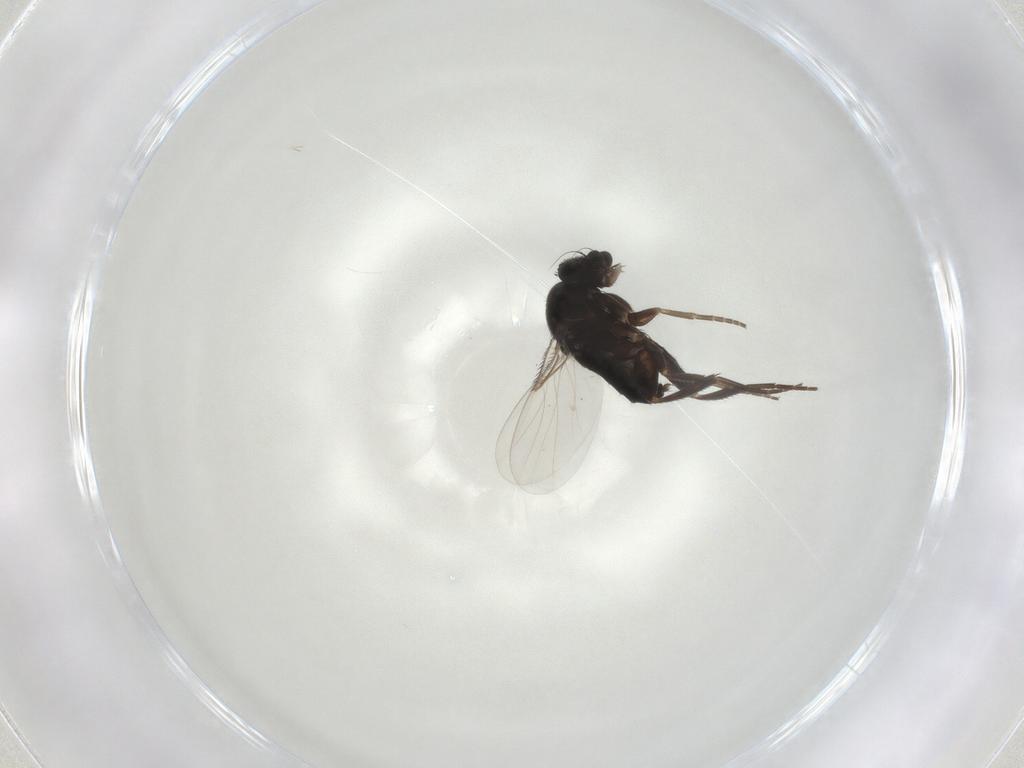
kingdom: Animalia
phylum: Arthropoda
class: Insecta
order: Diptera
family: Phoridae
